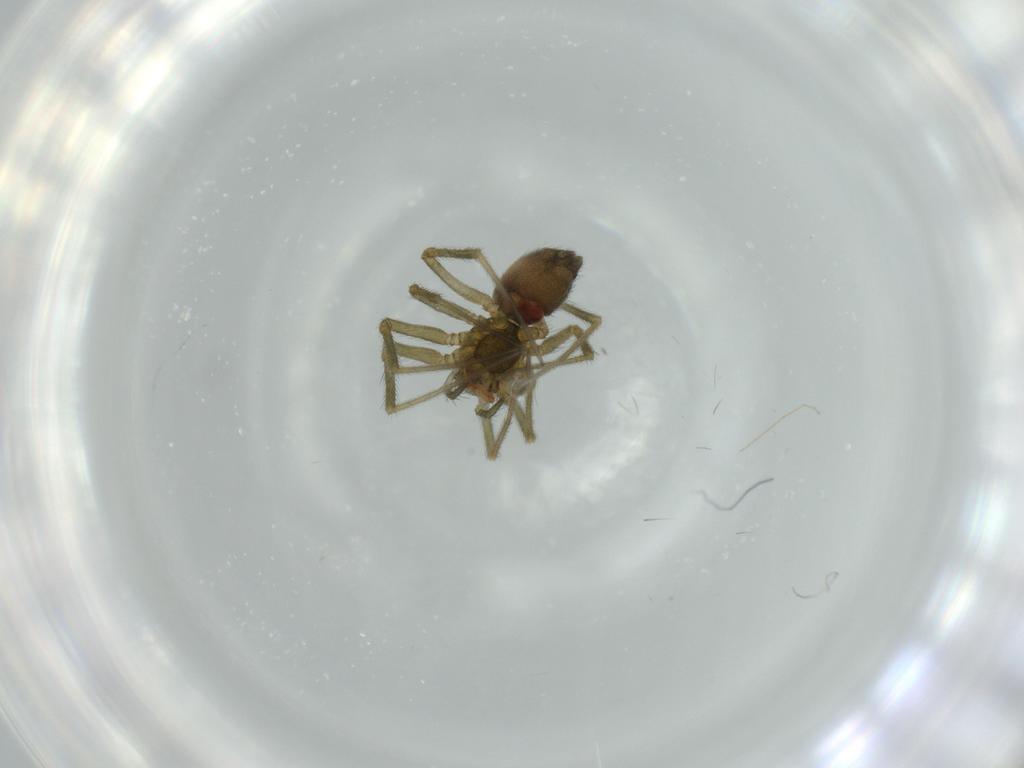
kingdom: Animalia
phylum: Arthropoda
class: Arachnida
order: Araneae
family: Linyphiidae
